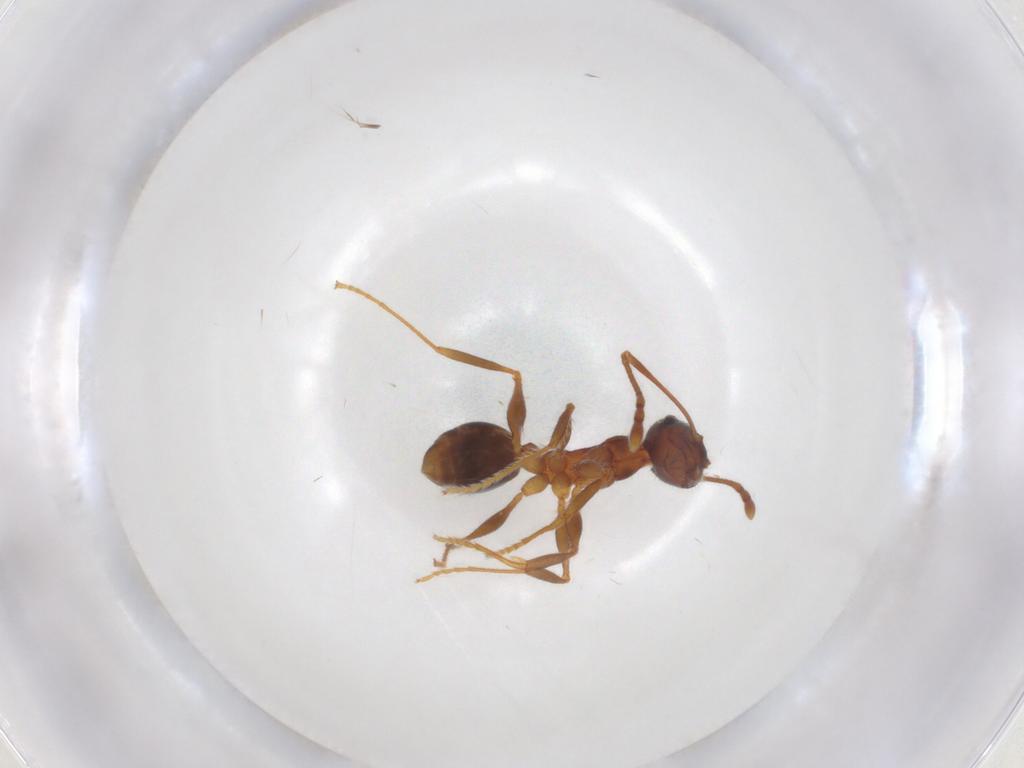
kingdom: Animalia
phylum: Arthropoda
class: Insecta
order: Hymenoptera
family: Formicidae
